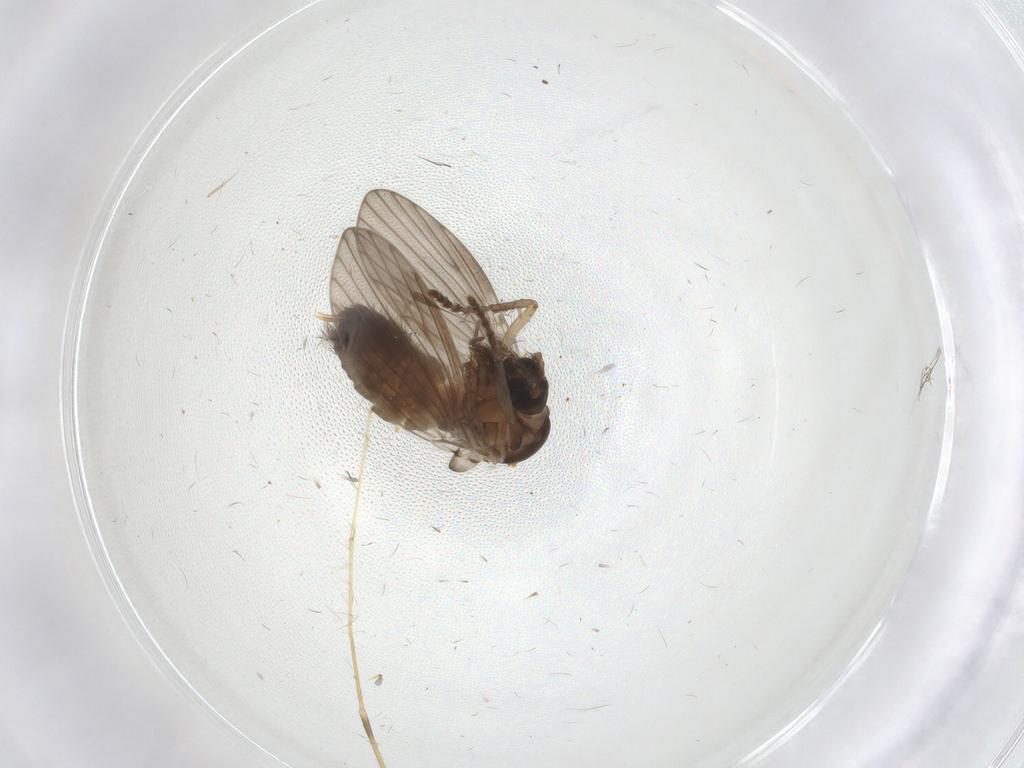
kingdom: Animalia
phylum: Arthropoda
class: Insecta
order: Diptera
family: Psychodidae
